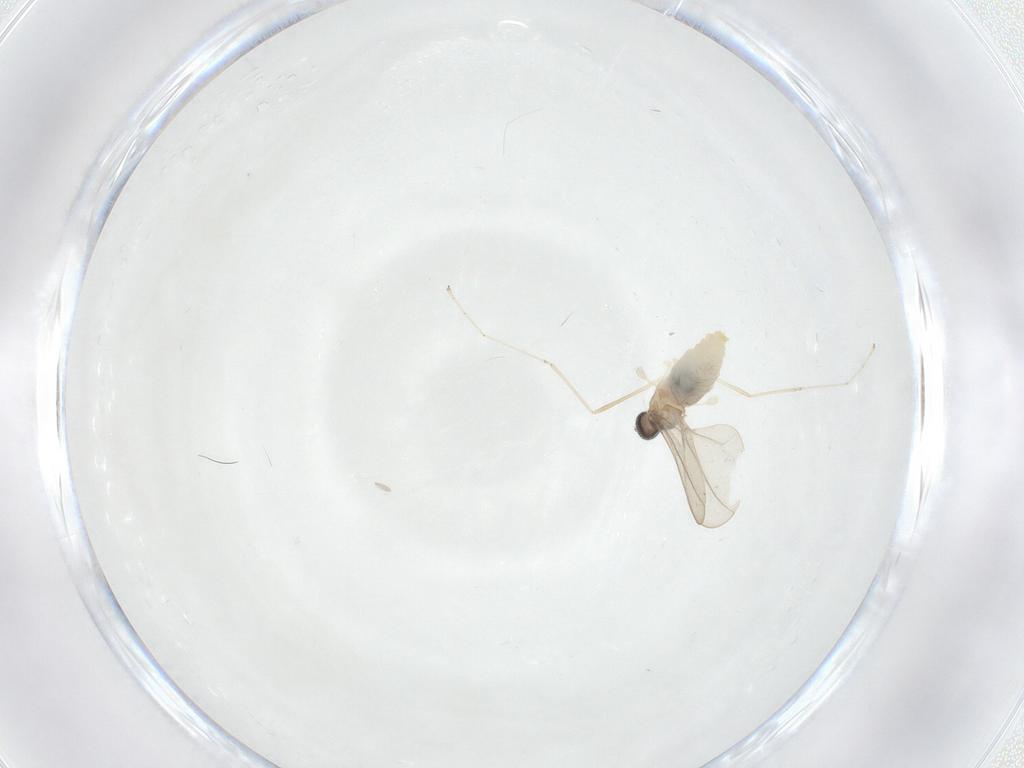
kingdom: Animalia
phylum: Arthropoda
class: Insecta
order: Diptera
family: Cecidomyiidae
